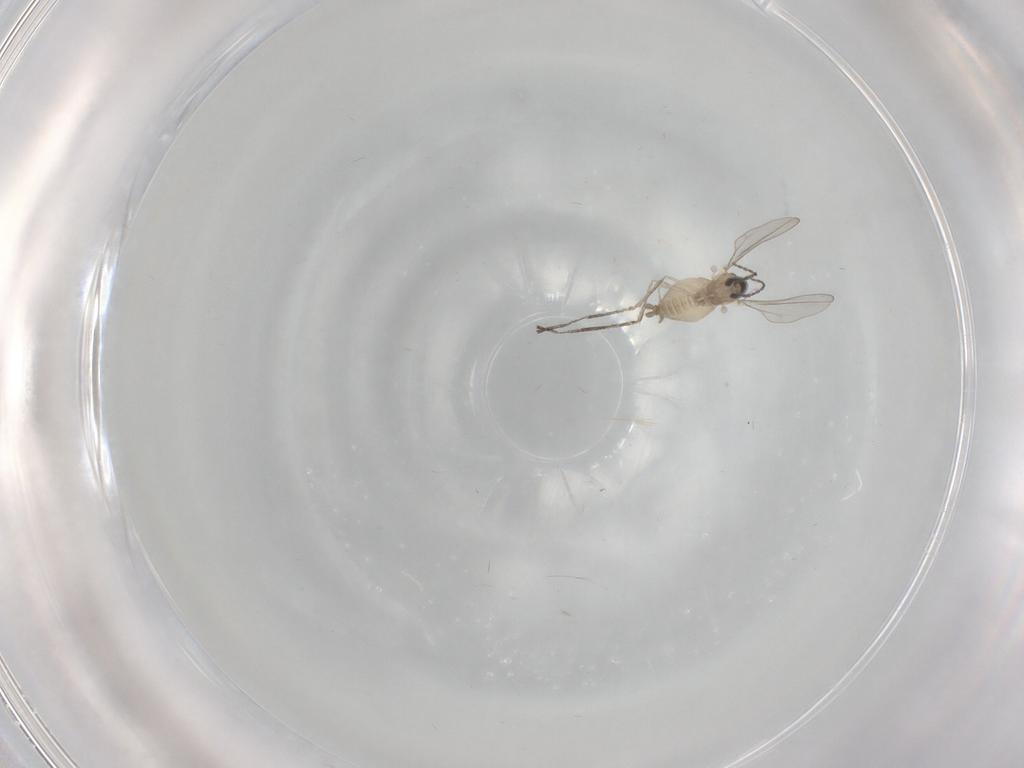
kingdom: Animalia
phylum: Arthropoda
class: Insecta
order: Diptera
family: Cecidomyiidae
